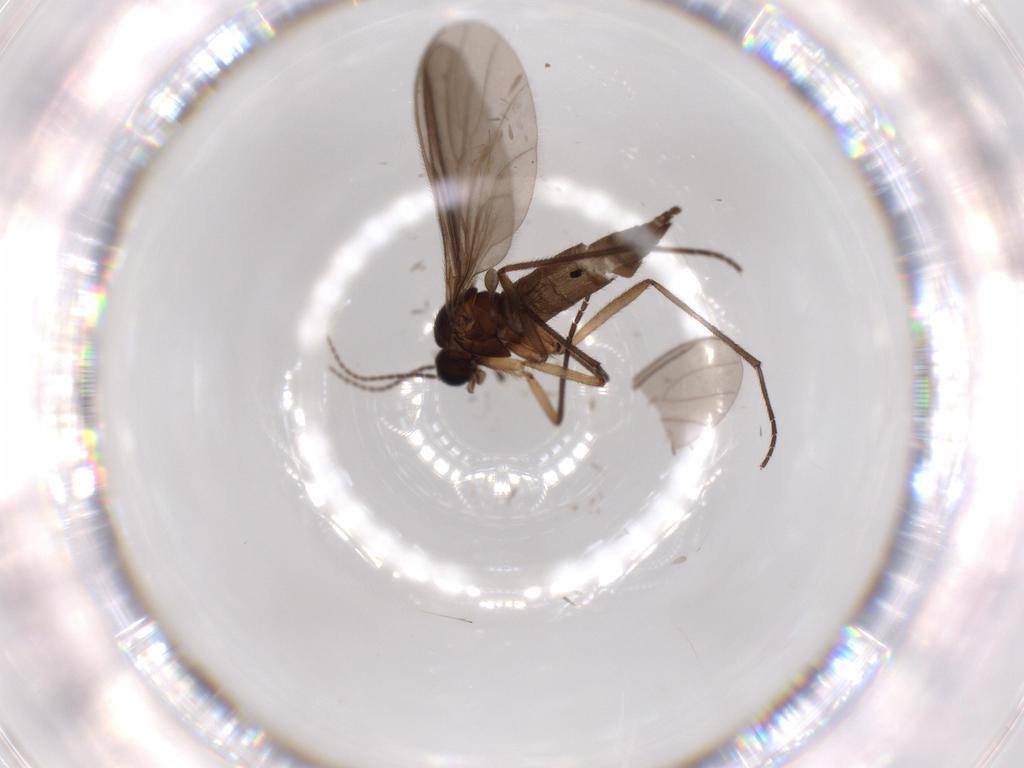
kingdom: Animalia
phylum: Arthropoda
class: Insecta
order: Diptera
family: Sciaridae
